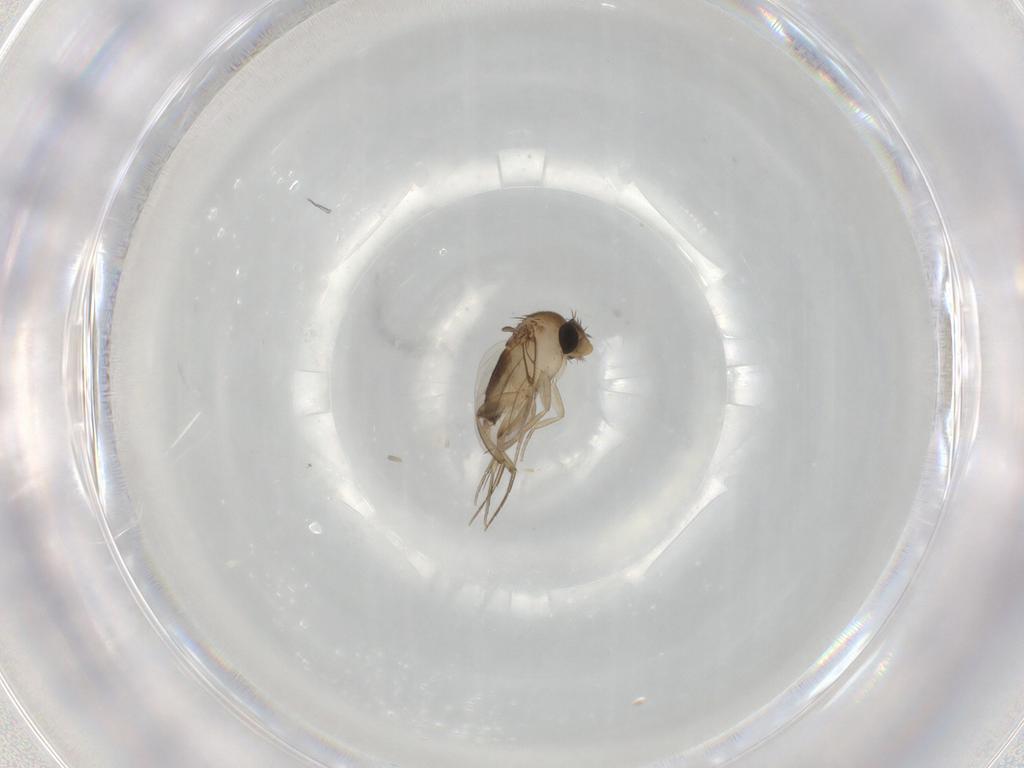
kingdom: Animalia
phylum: Arthropoda
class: Insecta
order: Diptera
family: Phoridae
